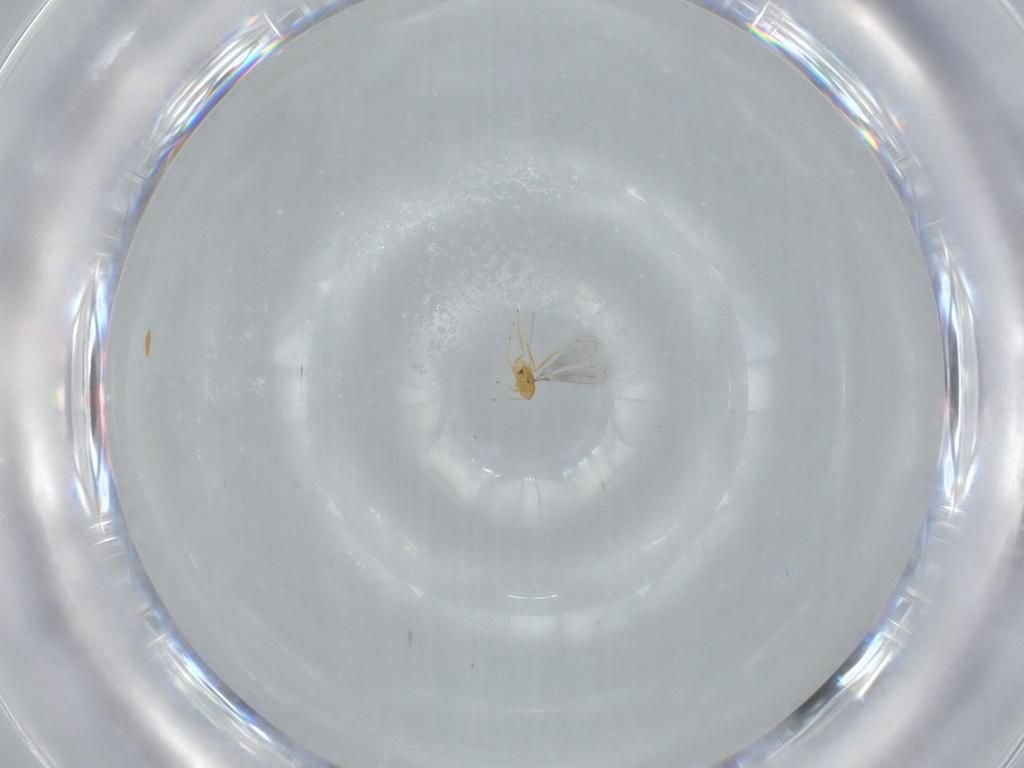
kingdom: Animalia
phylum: Arthropoda
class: Insecta
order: Hymenoptera
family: Mymaridae
